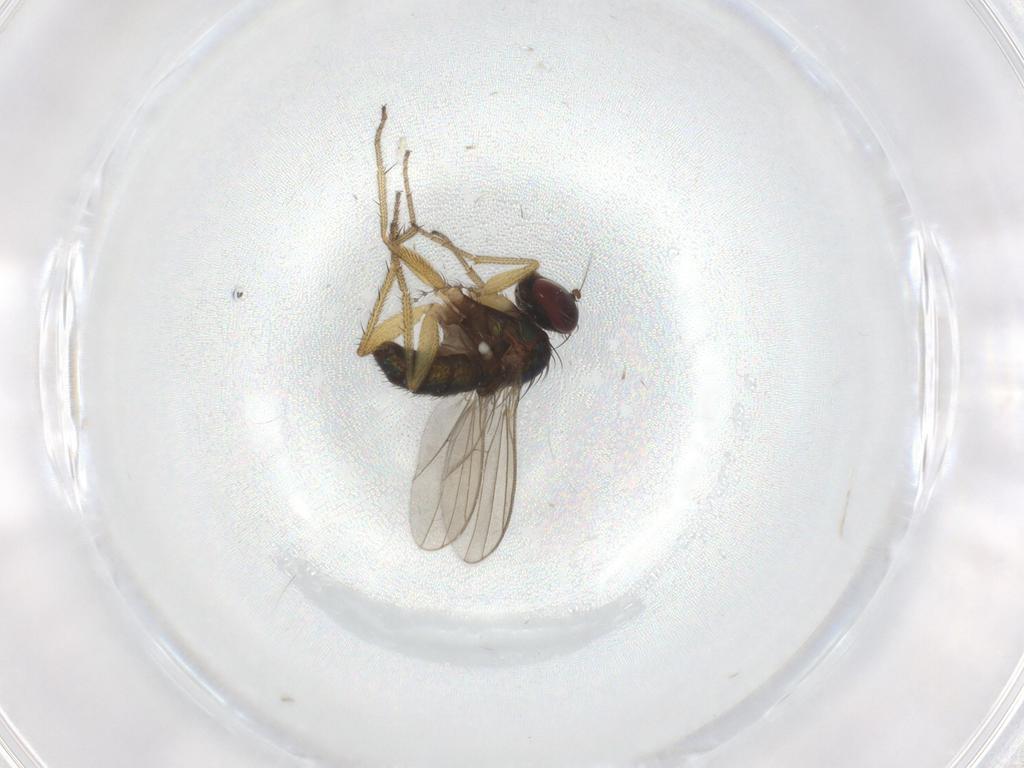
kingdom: Animalia
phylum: Arthropoda
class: Insecta
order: Diptera
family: Dolichopodidae
